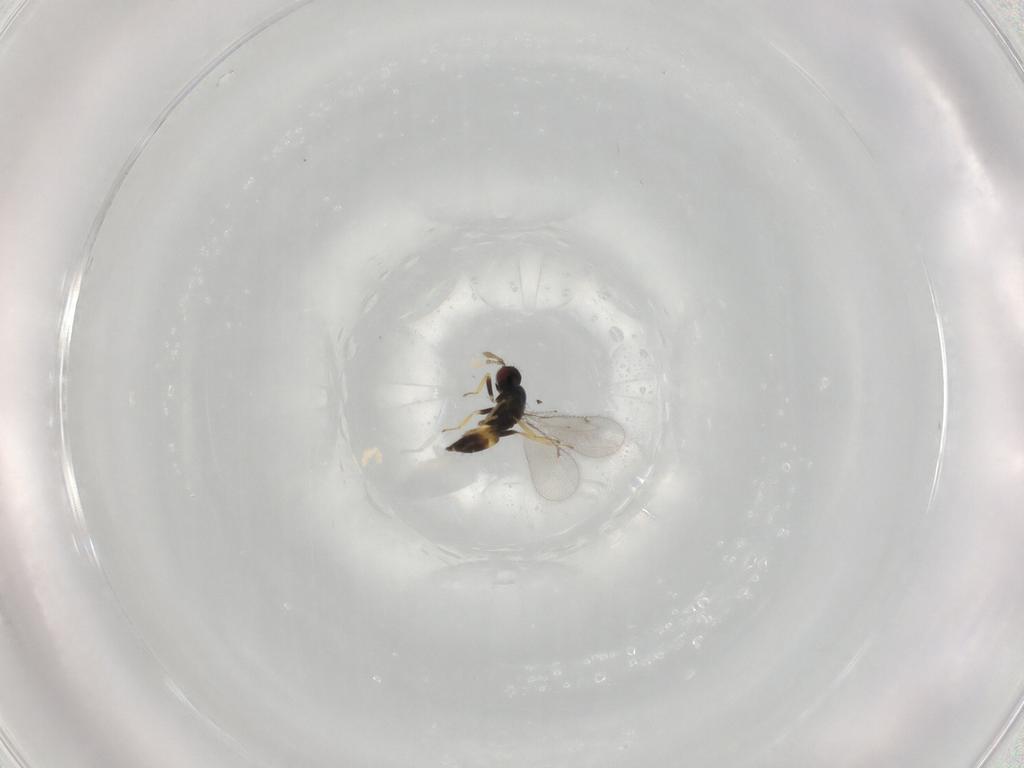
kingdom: Animalia
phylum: Arthropoda
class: Insecta
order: Hymenoptera
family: Eulophidae
